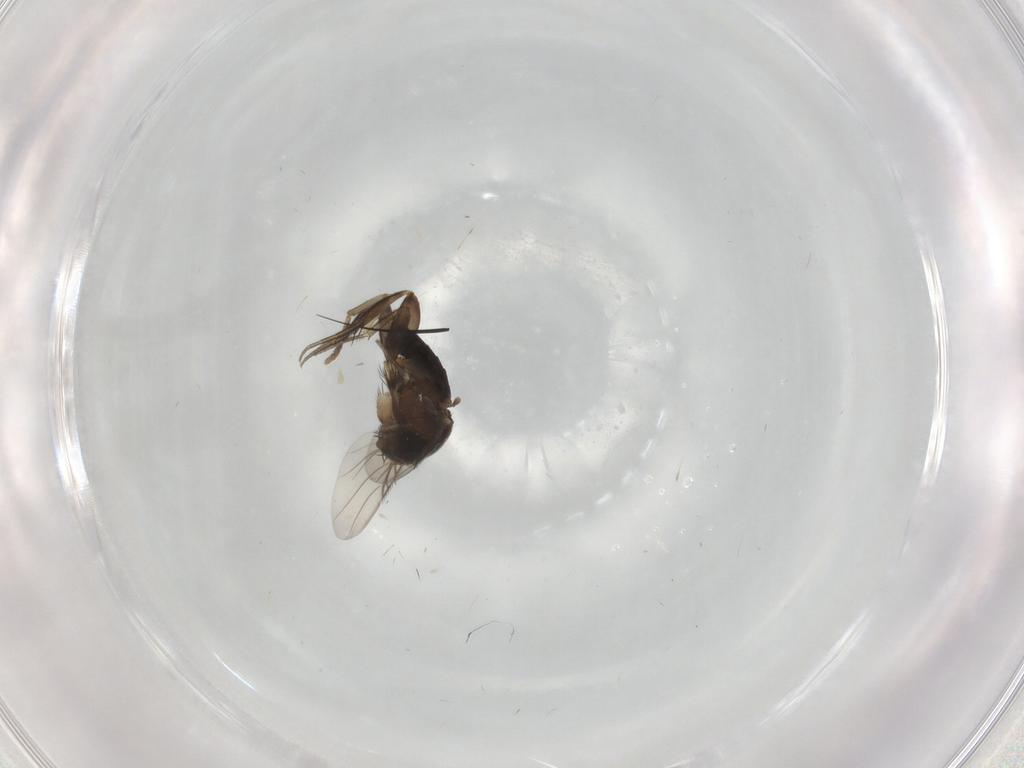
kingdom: Animalia
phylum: Arthropoda
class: Insecta
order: Diptera
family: Phoridae
